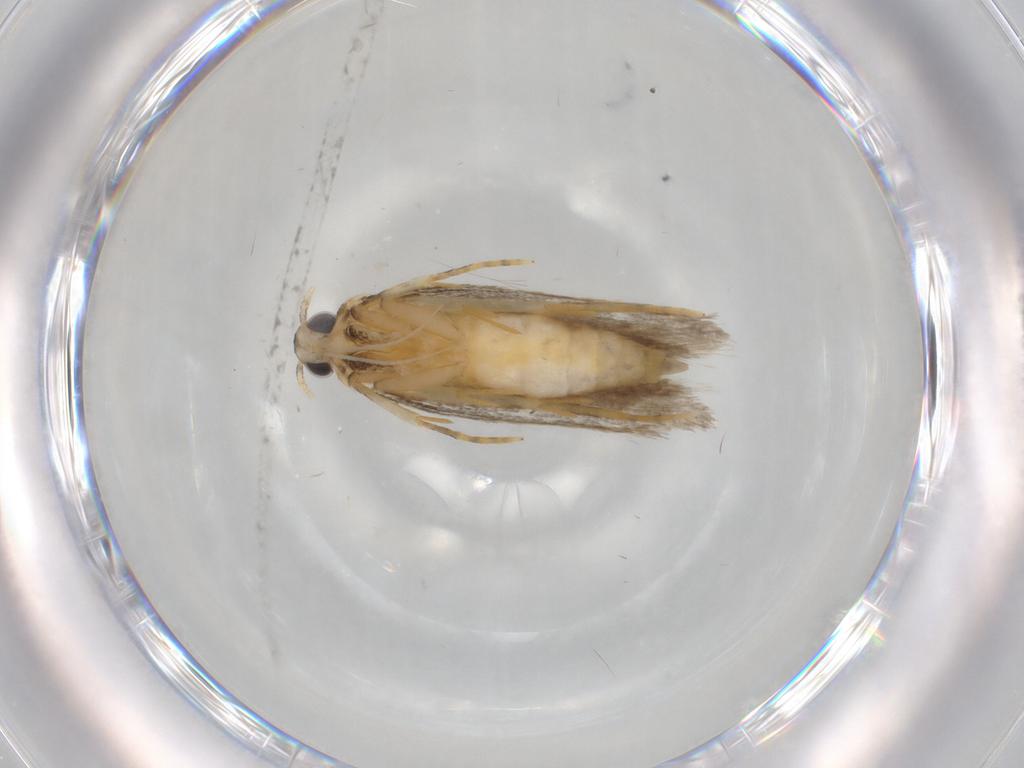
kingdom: Animalia
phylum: Arthropoda
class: Insecta
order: Lepidoptera
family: Autostichidae
